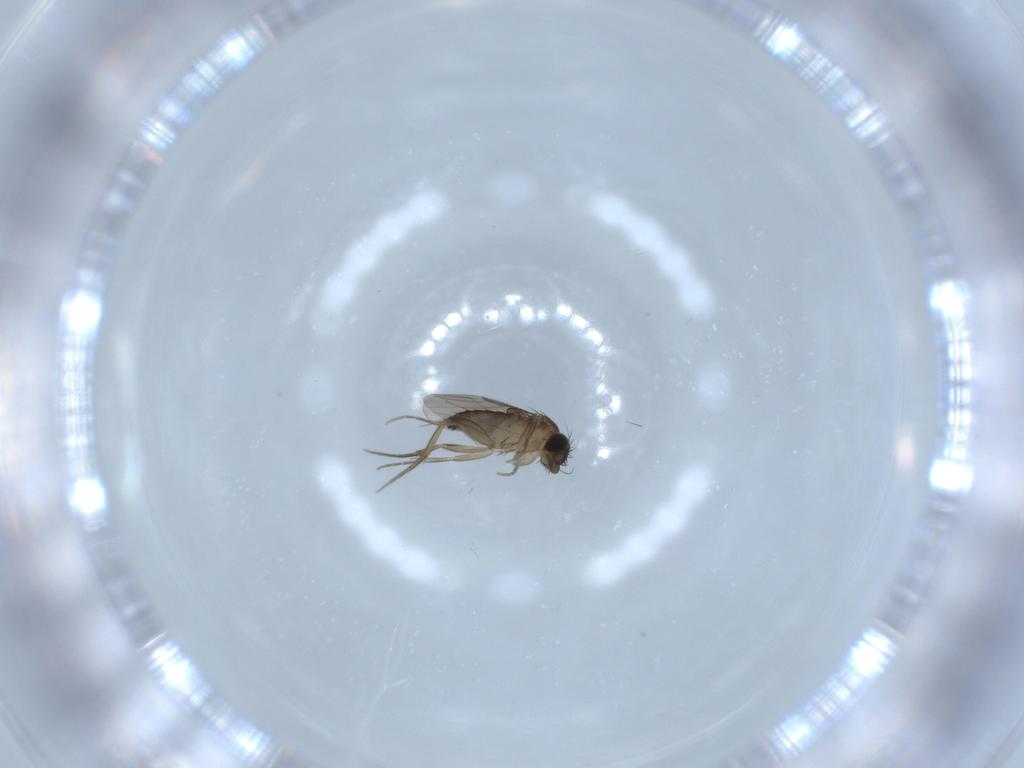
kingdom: Animalia
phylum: Arthropoda
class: Insecta
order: Diptera
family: Phoridae
